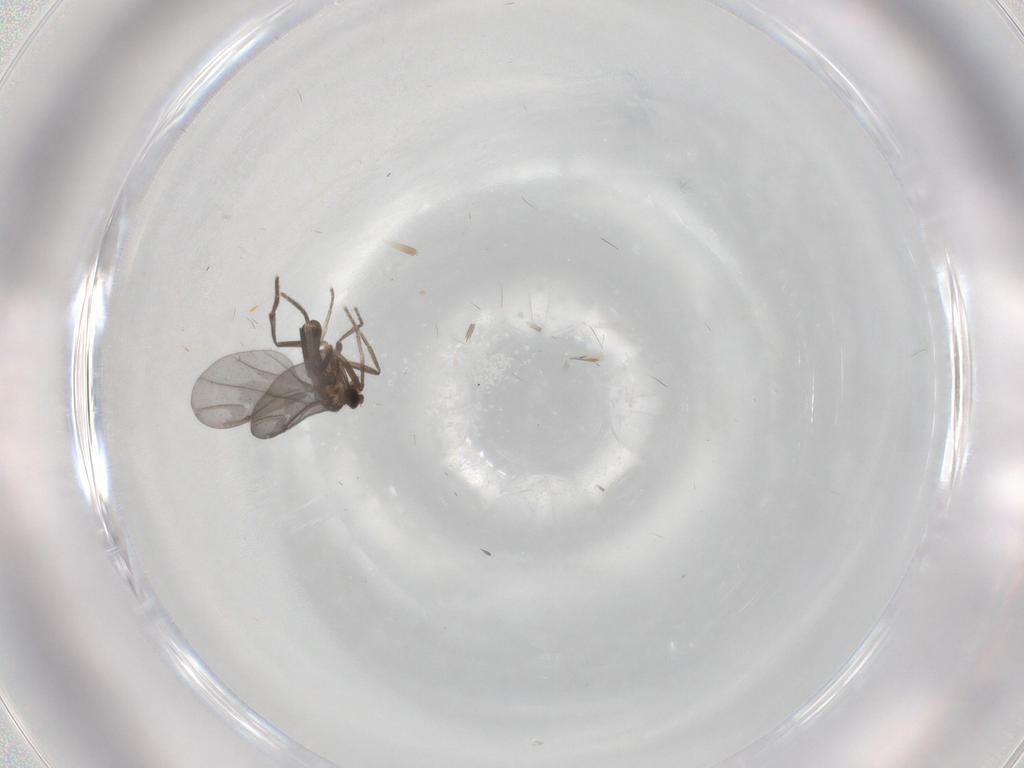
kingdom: Animalia
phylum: Arthropoda
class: Insecta
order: Diptera
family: Phoridae
